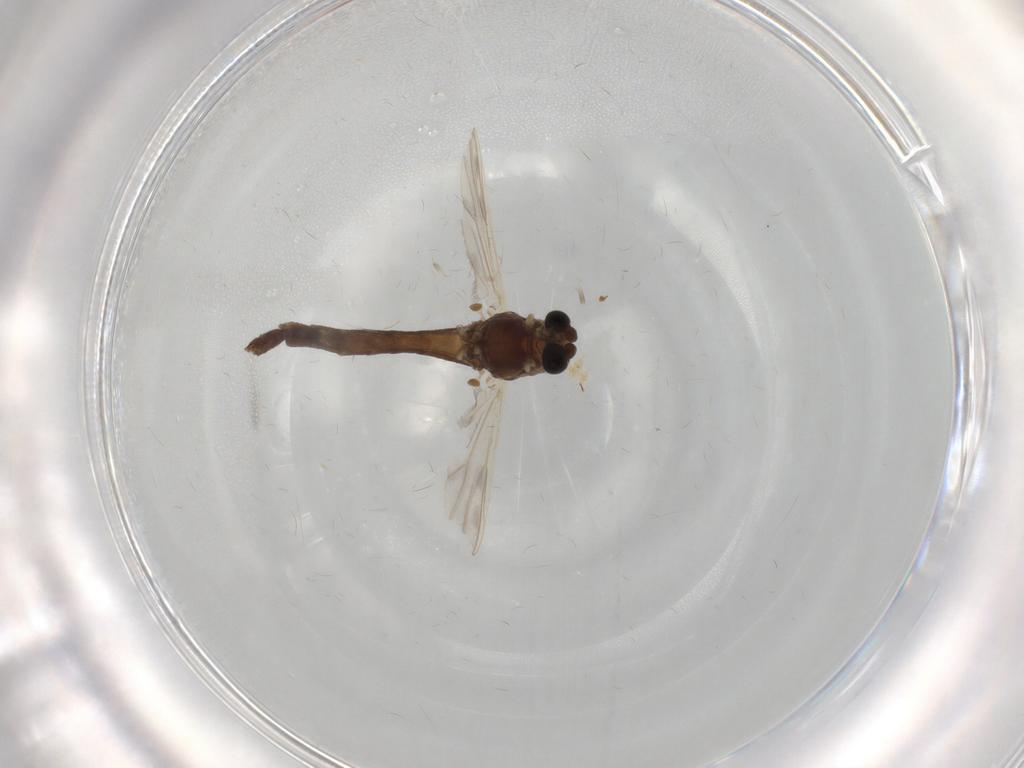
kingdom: Animalia
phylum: Arthropoda
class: Insecta
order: Diptera
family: Chironomidae
